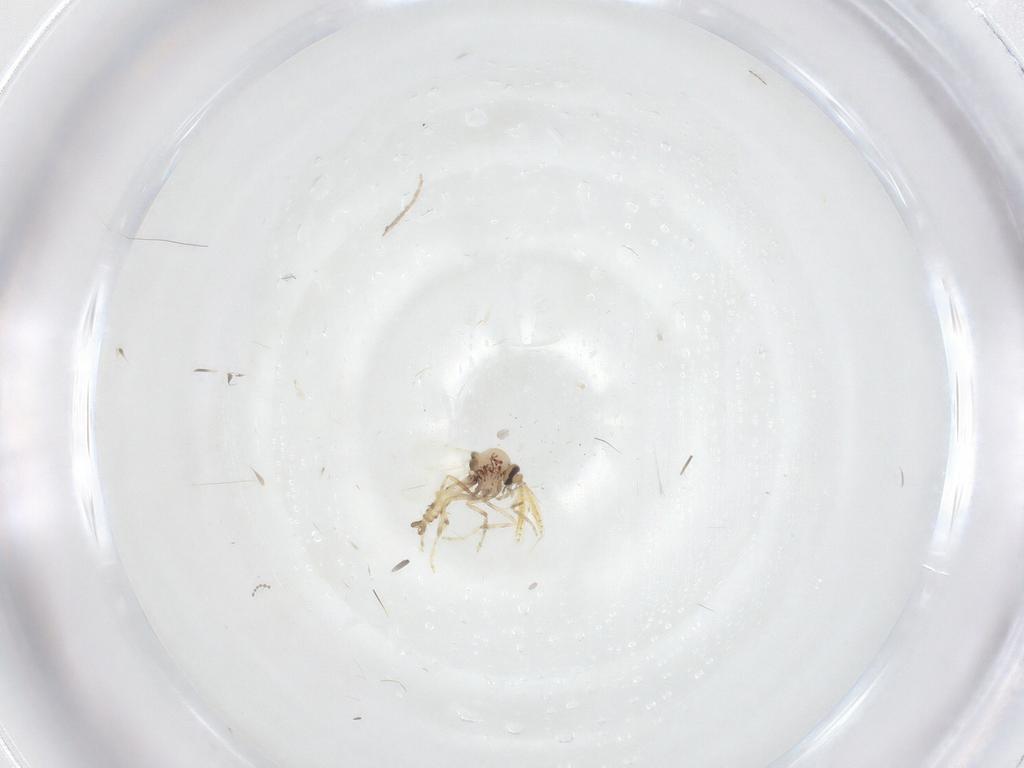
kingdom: Animalia
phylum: Arthropoda
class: Insecta
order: Diptera
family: Chironomidae
